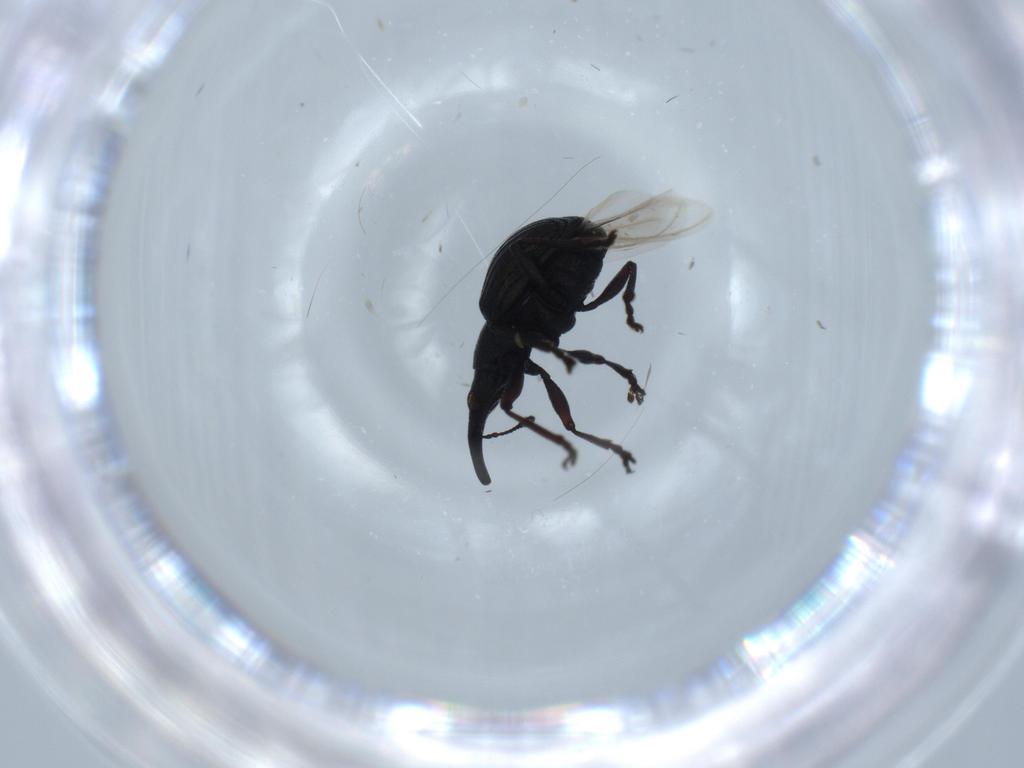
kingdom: Animalia
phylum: Arthropoda
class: Insecta
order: Coleoptera
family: Brentidae
